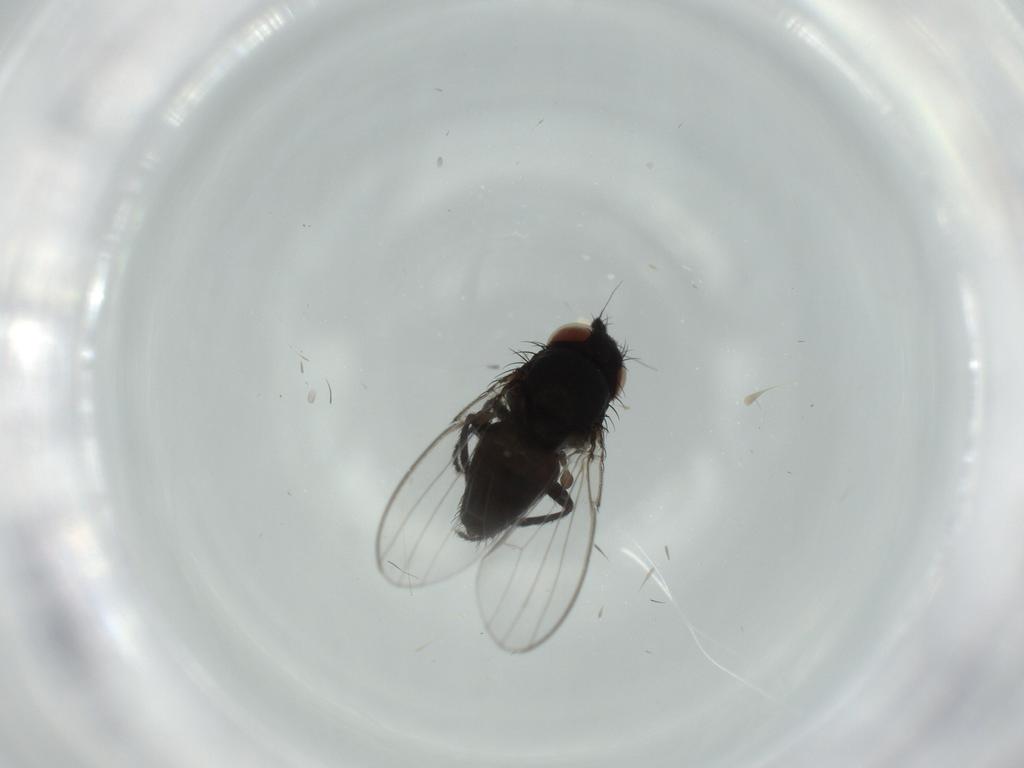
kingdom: Animalia
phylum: Arthropoda
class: Insecta
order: Diptera
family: Milichiidae
